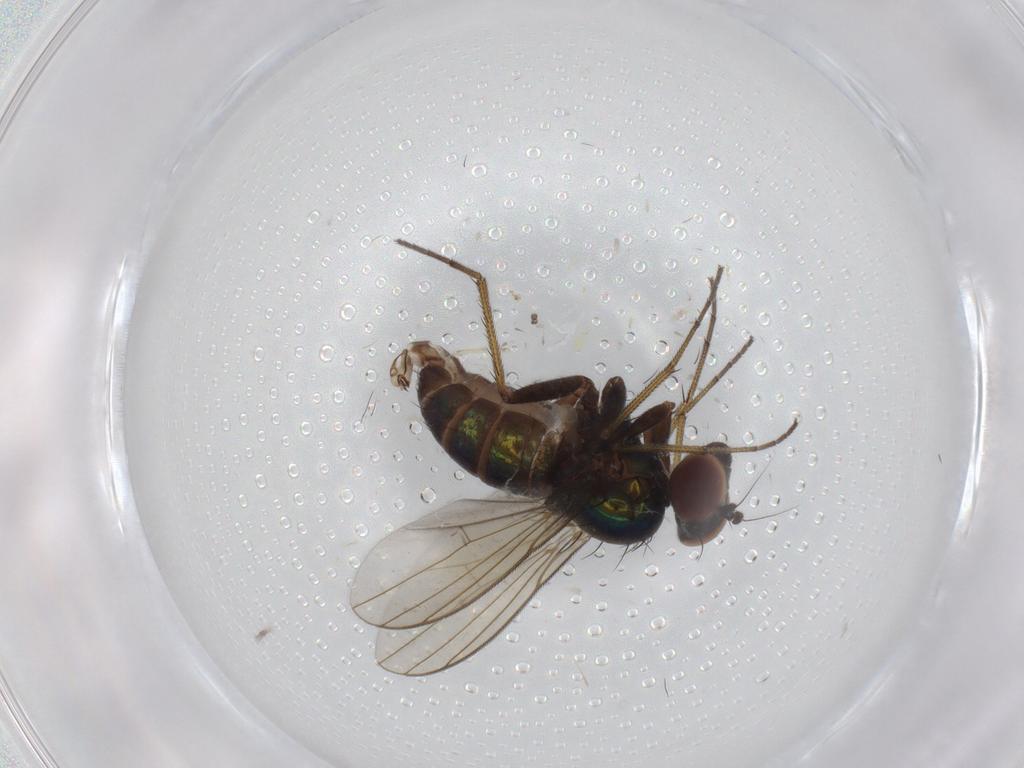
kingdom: Animalia
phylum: Arthropoda
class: Insecta
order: Diptera
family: Dolichopodidae
